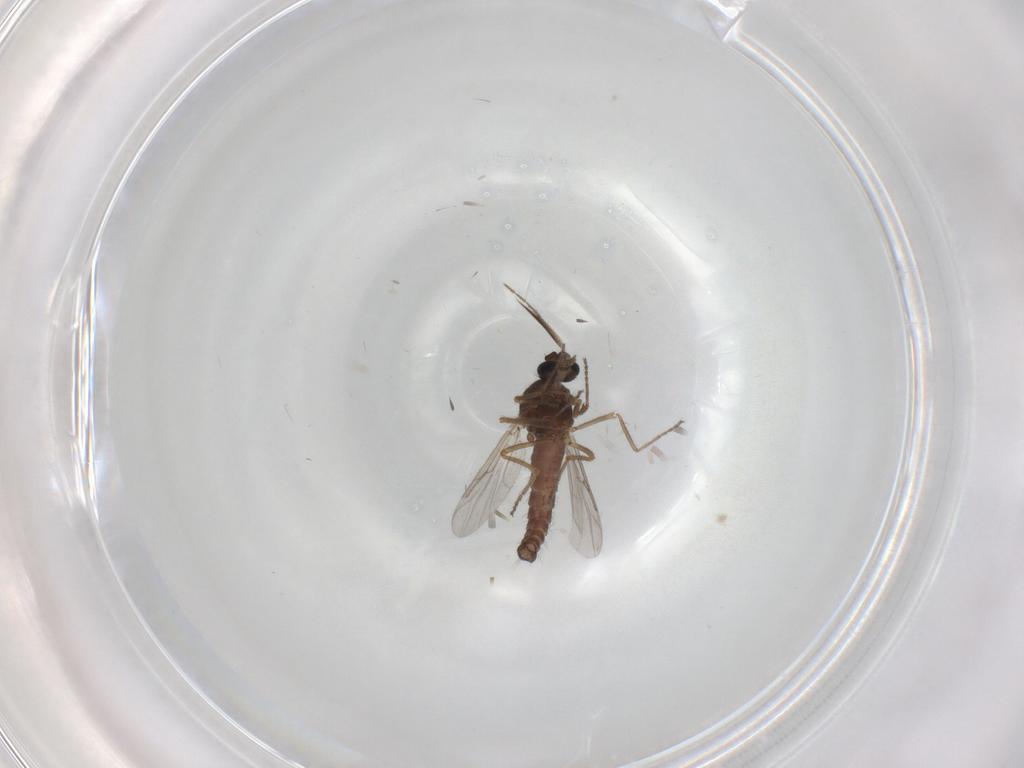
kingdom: Animalia
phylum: Arthropoda
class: Insecta
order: Diptera
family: Ceratopogonidae
